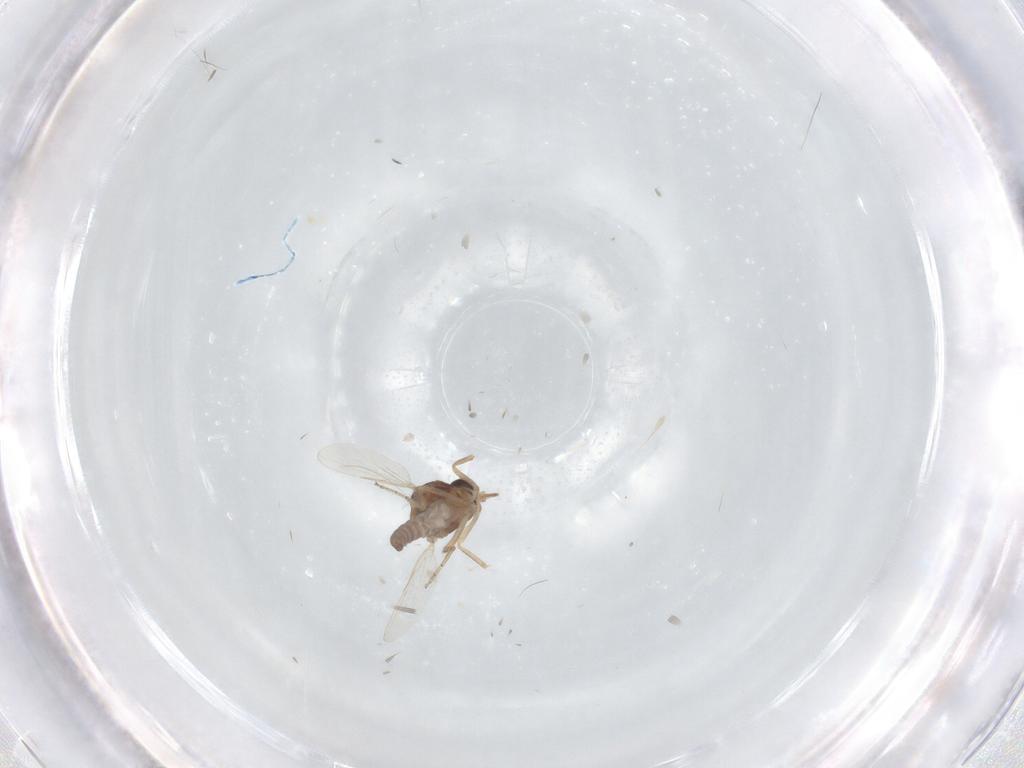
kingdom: Animalia
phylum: Arthropoda
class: Insecta
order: Diptera
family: Ceratopogonidae
